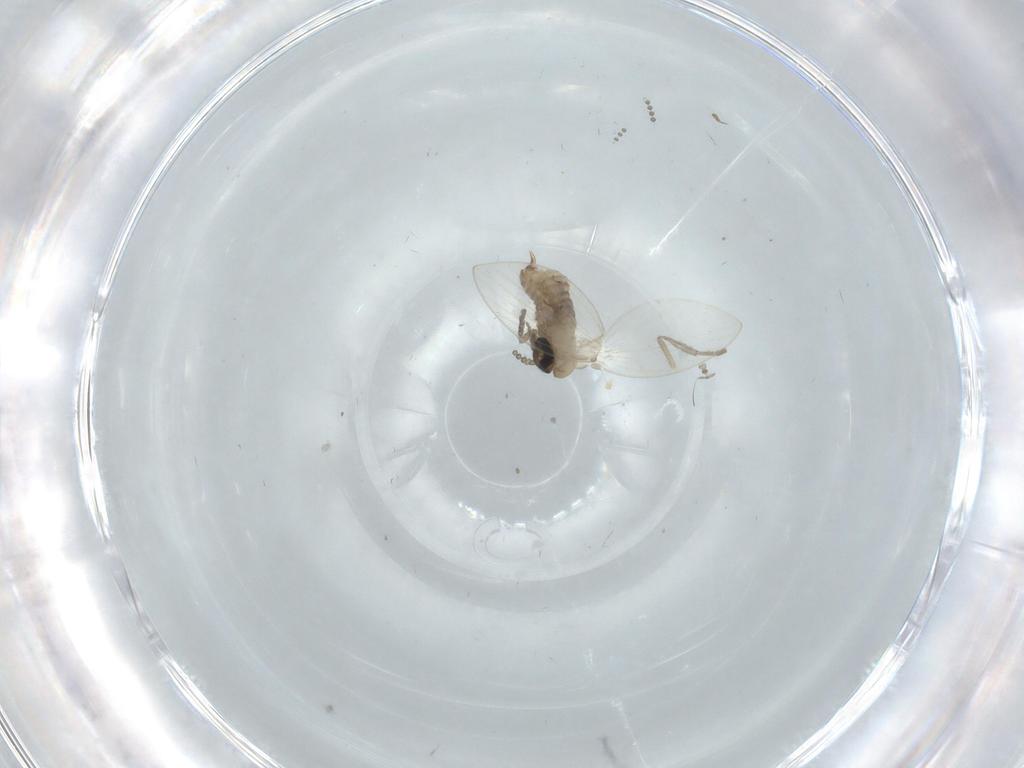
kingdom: Animalia
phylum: Arthropoda
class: Insecta
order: Diptera
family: Psychodidae
